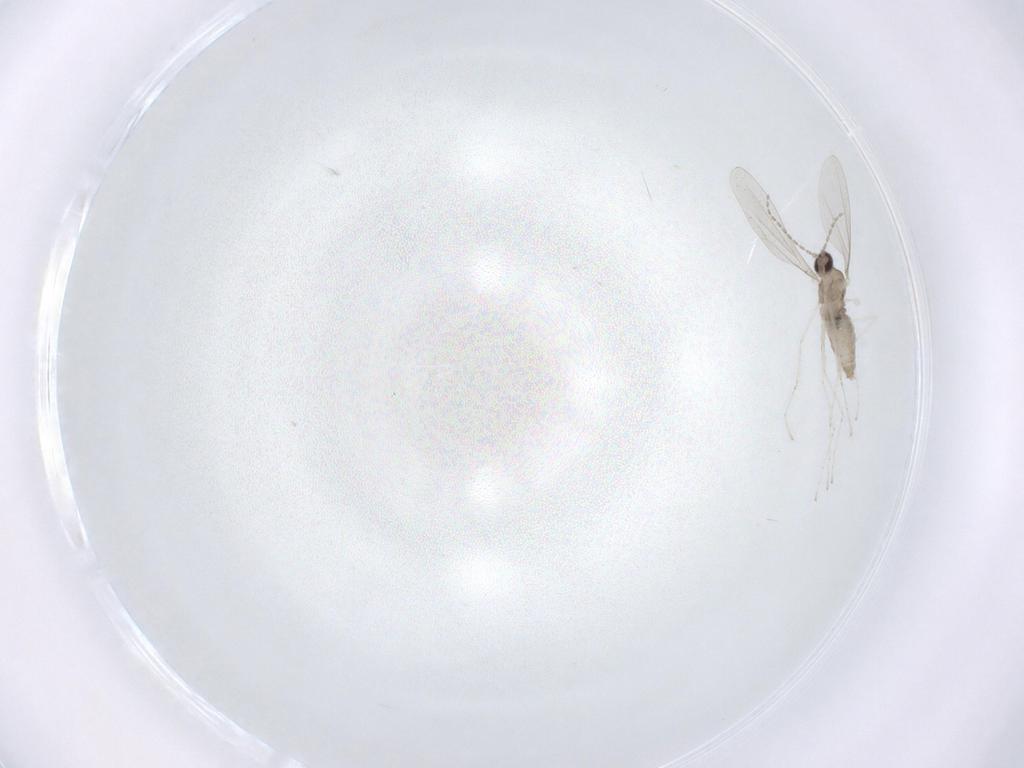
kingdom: Animalia
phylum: Arthropoda
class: Insecta
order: Diptera
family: Cecidomyiidae
